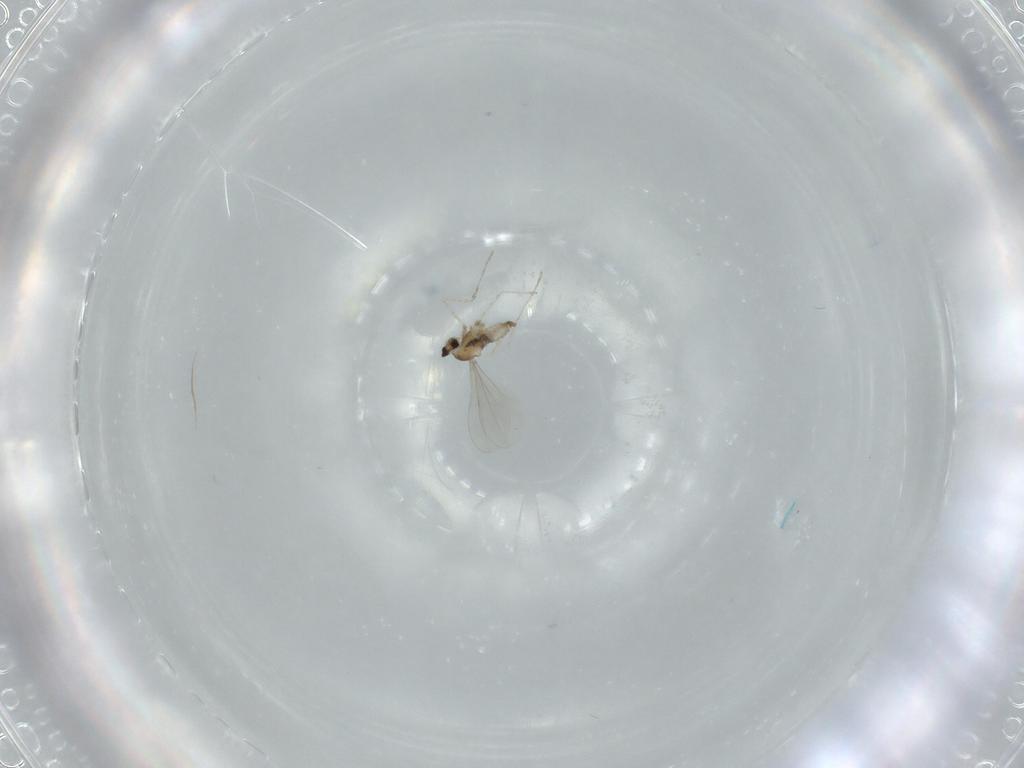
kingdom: Animalia
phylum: Arthropoda
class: Insecta
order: Diptera
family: Cecidomyiidae
